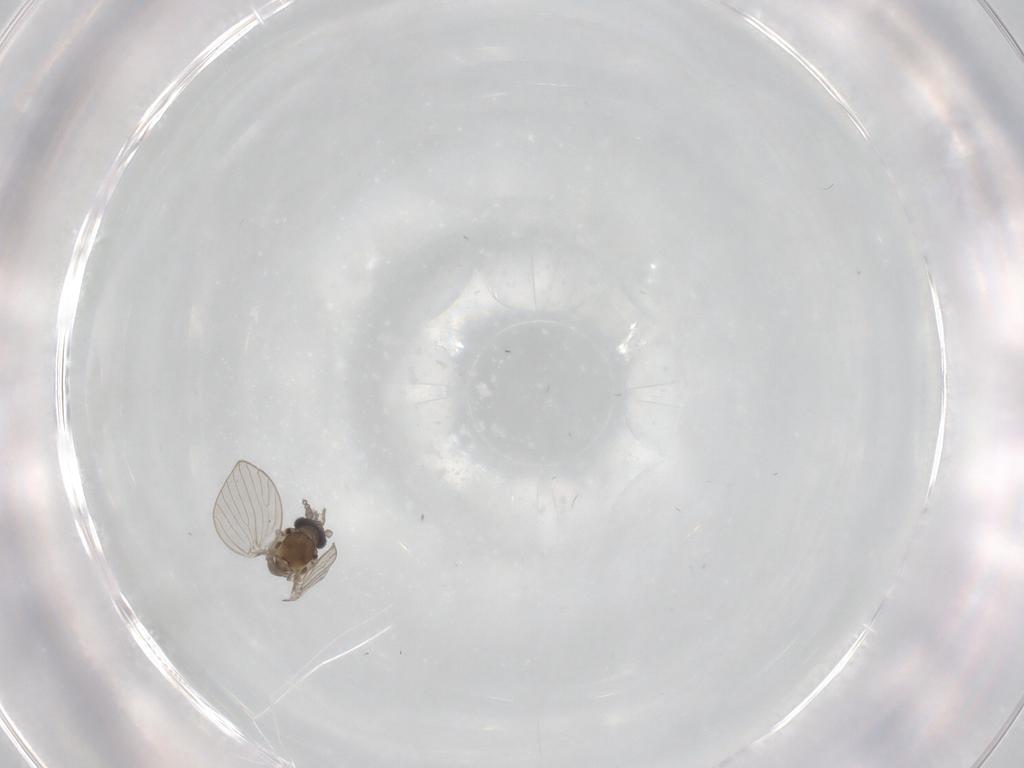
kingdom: Animalia
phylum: Arthropoda
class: Insecta
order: Diptera
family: Psychodidae
